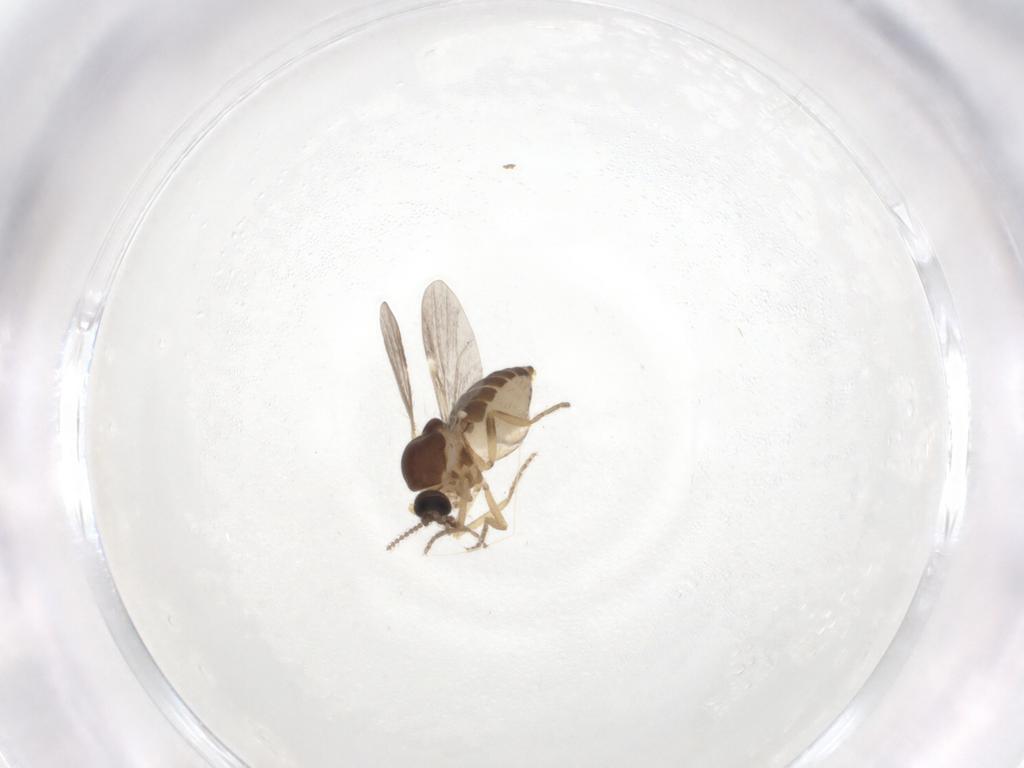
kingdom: Animalia
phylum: Arthropoda
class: Insecta
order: Diptera
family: Ceratopogonidae
